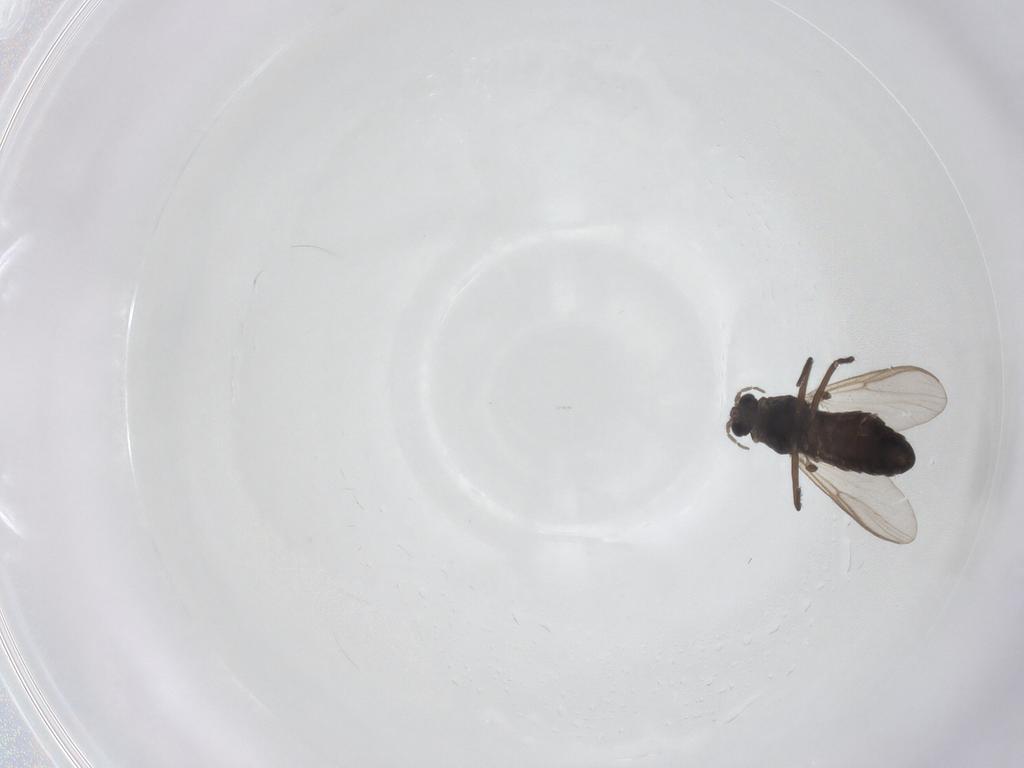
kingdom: Animalia
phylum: Arthropoda
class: Insecta
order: Diptera
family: Chironomidae
